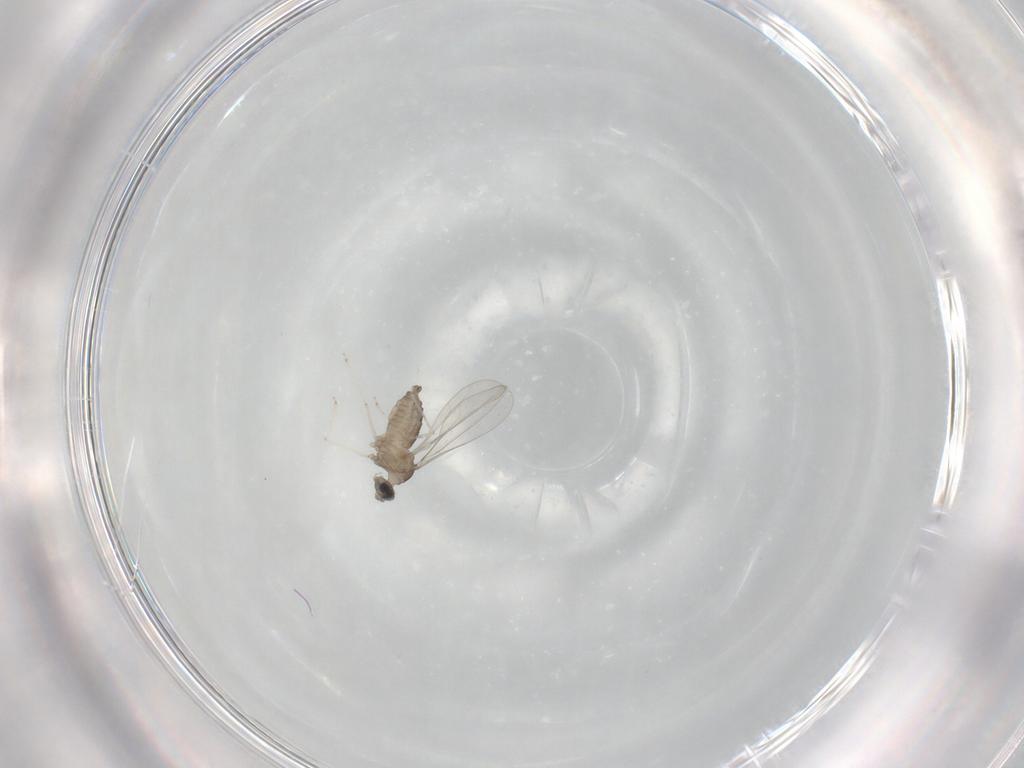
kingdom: Animalia
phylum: Arthropoda
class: Insecta
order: Diptera
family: Cecidomyiidae
